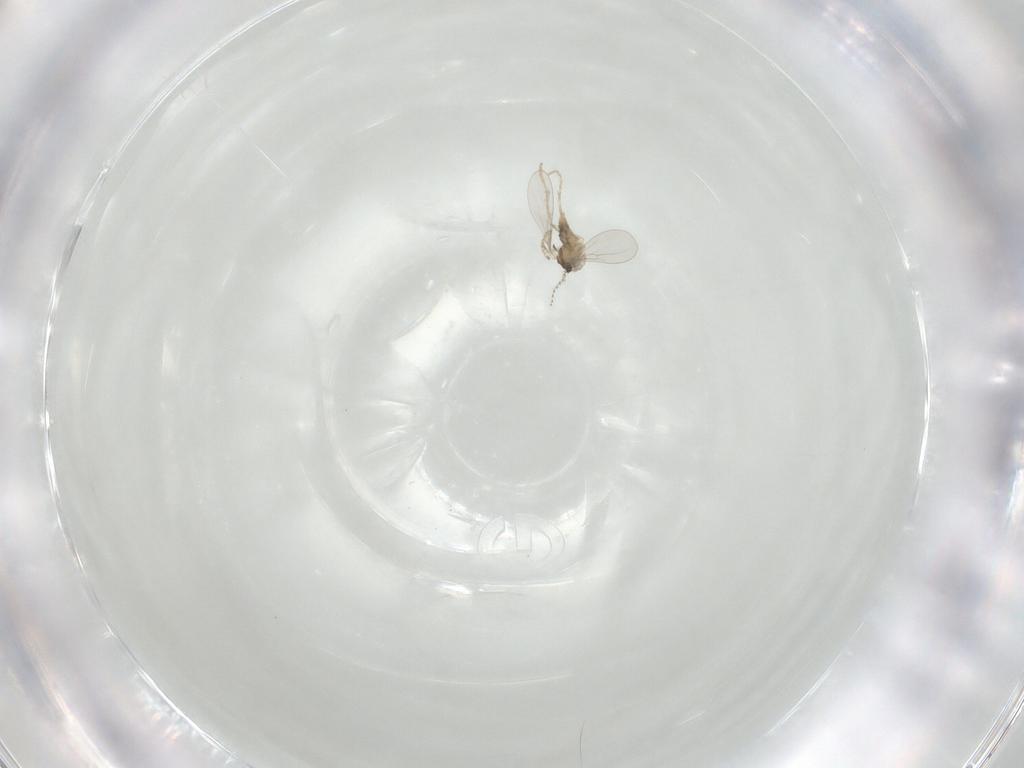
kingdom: Animalia
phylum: Arthropoda
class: Insecta
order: Diptera
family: Cecidomyiidae
